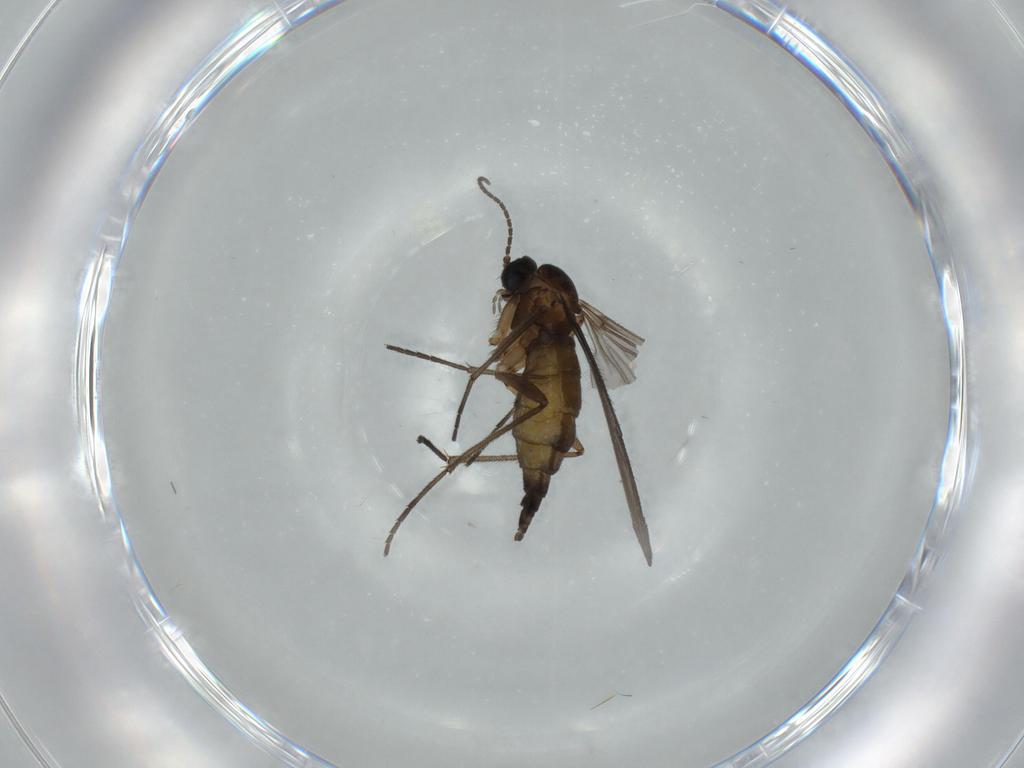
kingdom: Animalia
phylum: Arthropoda
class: Insecta
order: Diptera
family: Sciaridae
